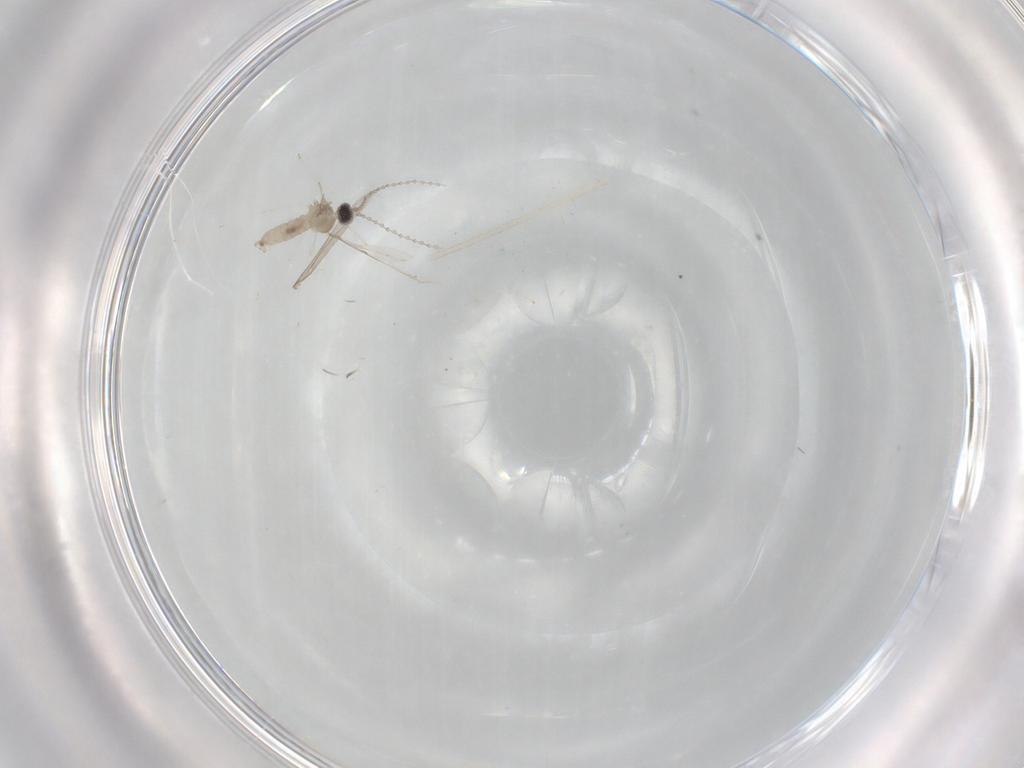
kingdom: Animalia
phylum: Arthropoda
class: Insecta
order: Diptera
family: Cecidomyiidae
